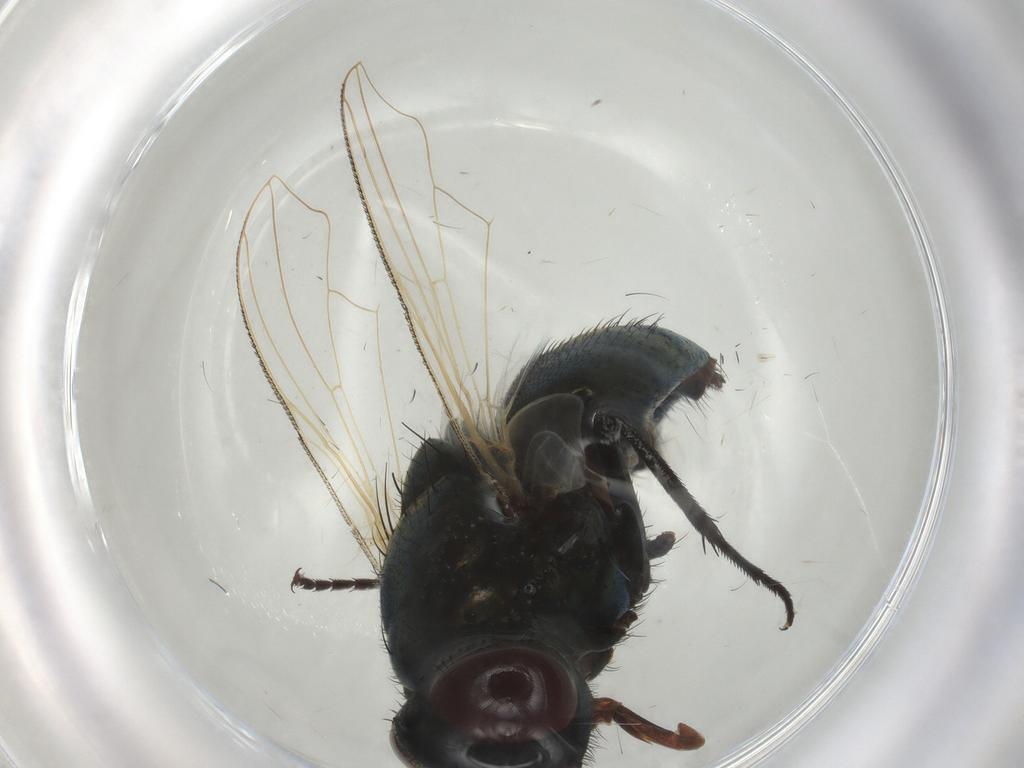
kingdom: Animalia
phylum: Arthropoda
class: Insecta
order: Diptera
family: Muscidae
